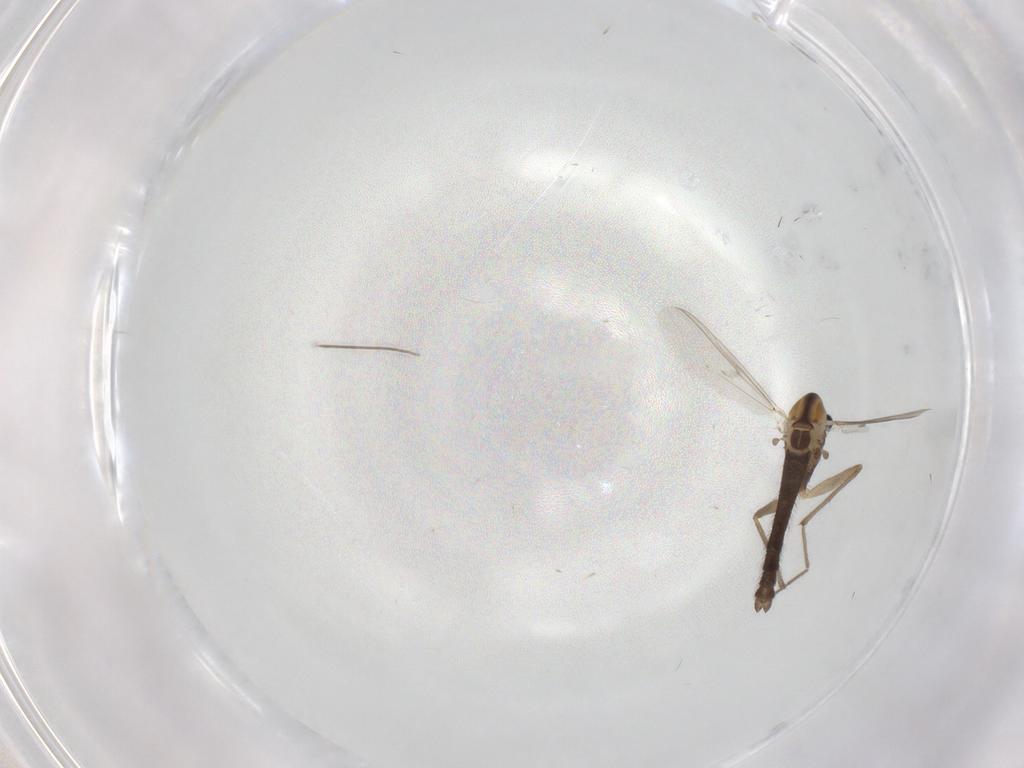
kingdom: Animalia
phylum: Arthropoda
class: Insecta
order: Diptera
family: Chironomidae
